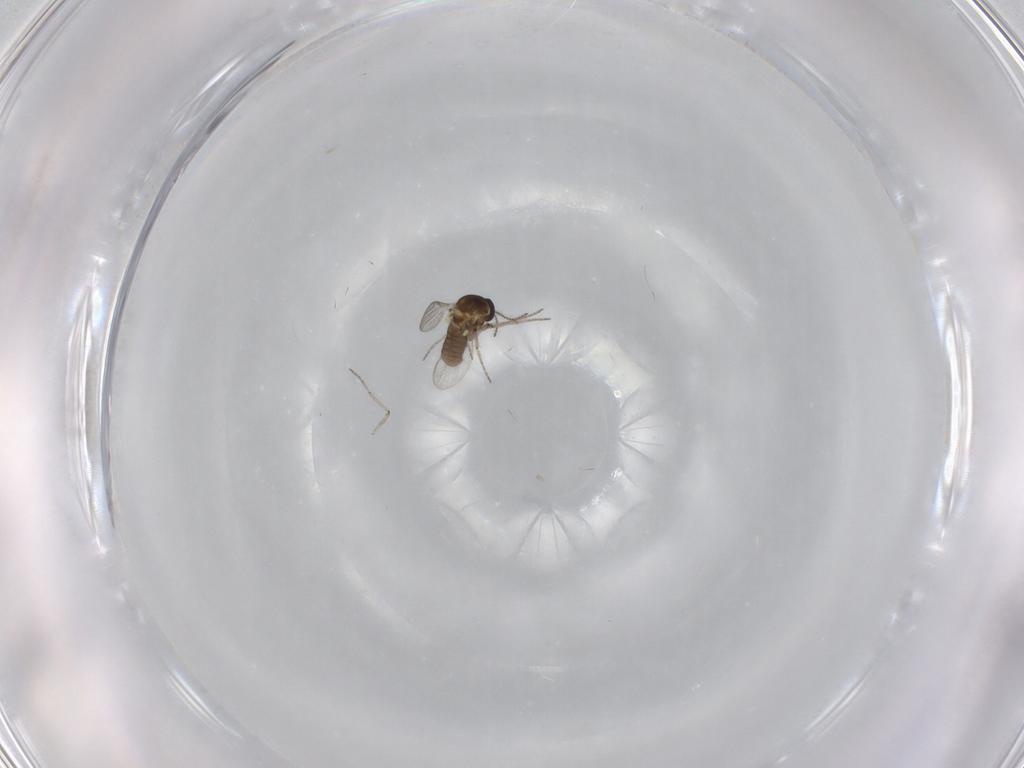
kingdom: Animalia
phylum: Arthropoda
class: Insecta
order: Diptera
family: Ceratopogonidae
